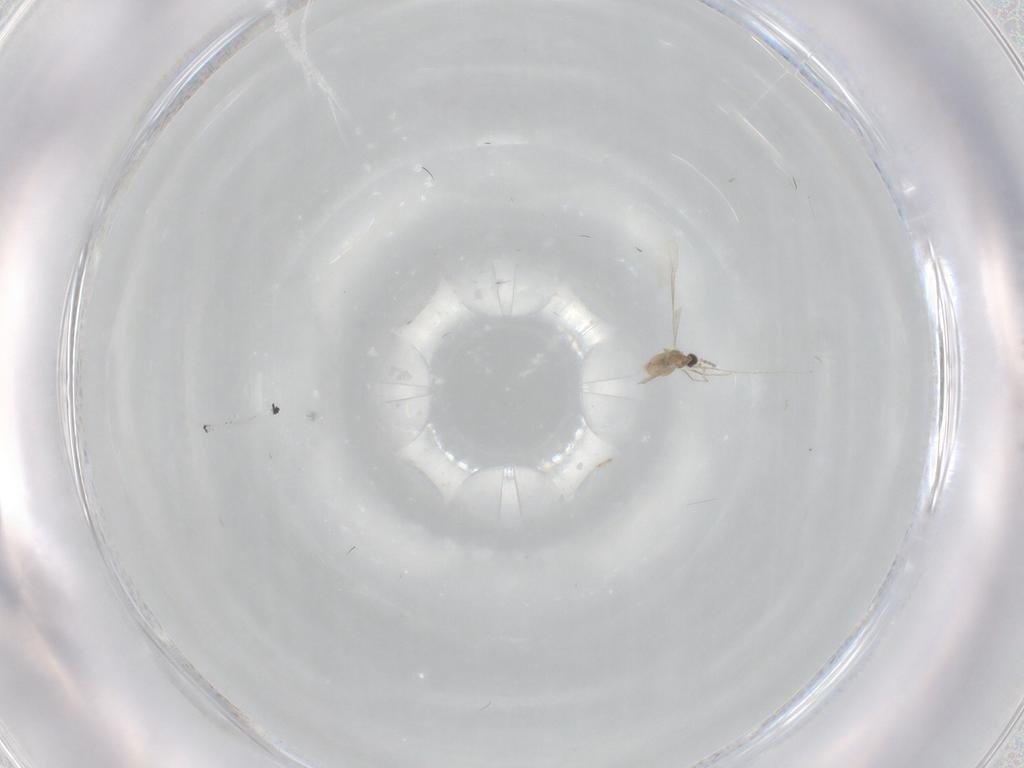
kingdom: Animalia
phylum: Arthropoda
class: Insecta
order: Diptera
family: Cecidomyiidae
